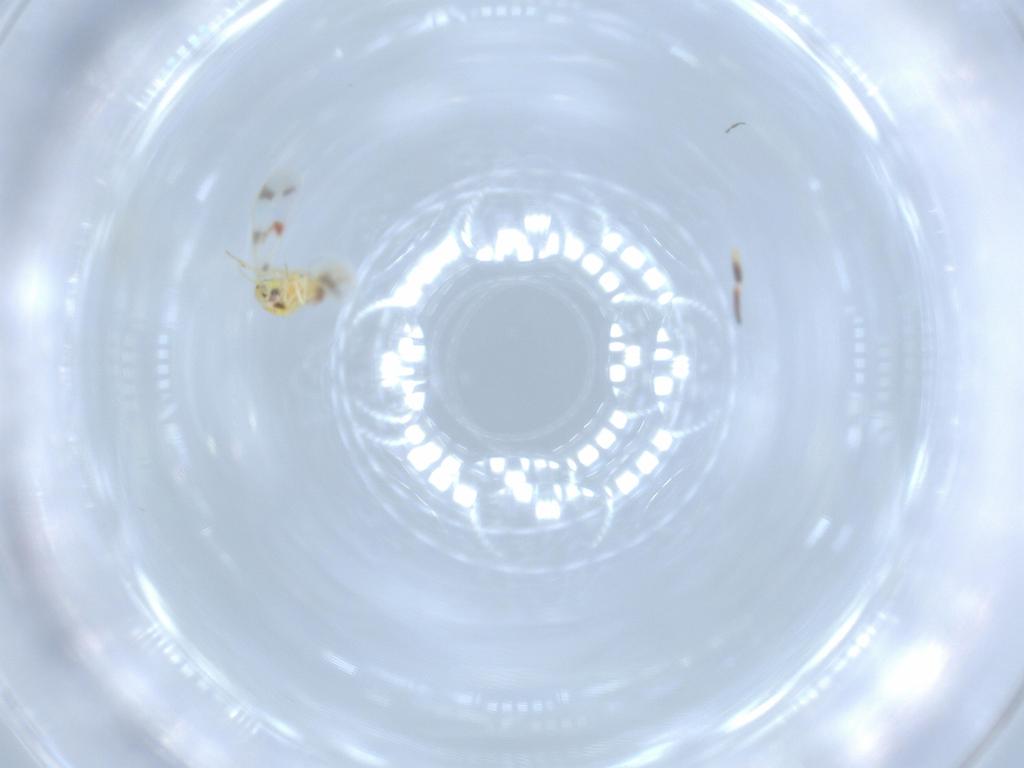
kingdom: Animalia
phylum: Arthropoda
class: Insecta
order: Hemiptera
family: Aleyrodidae
